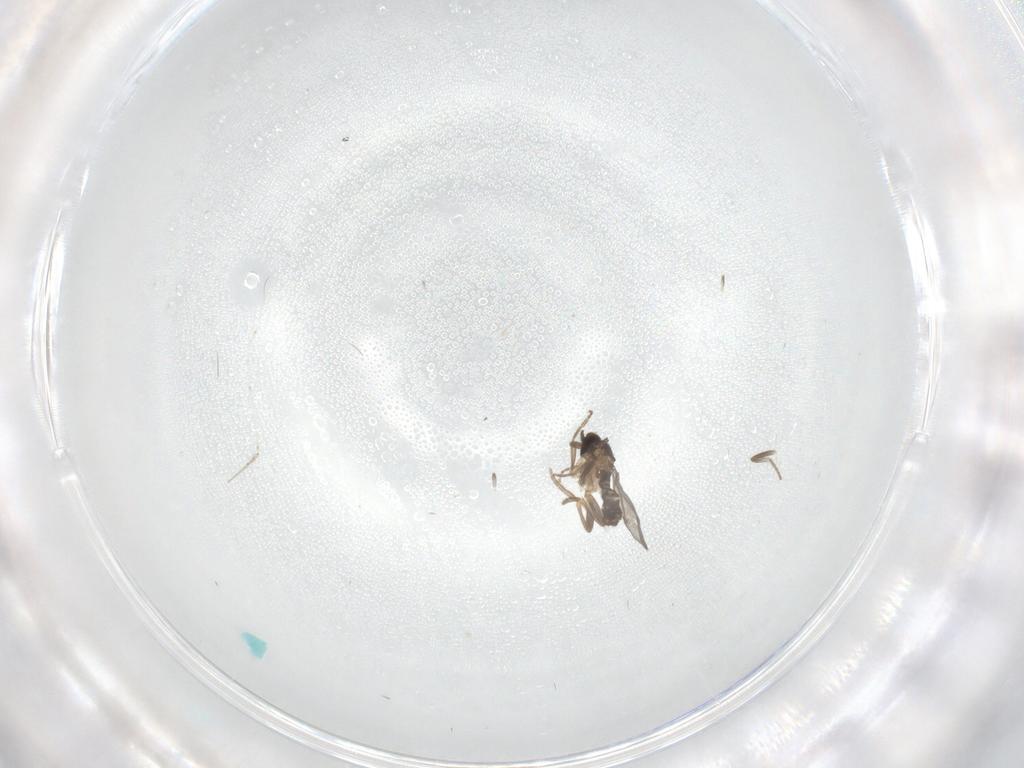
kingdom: Animalia
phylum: Arthropoda
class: Insecta
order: Diptera
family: Cecidomyiidae
